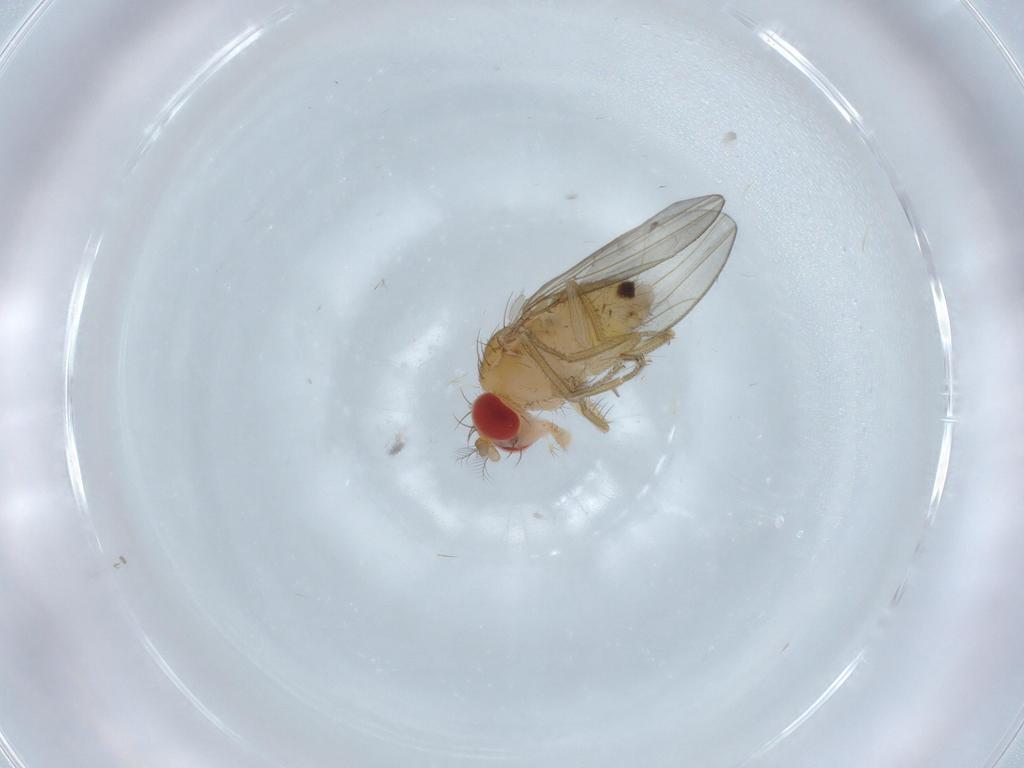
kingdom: Animalia
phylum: Arthropoda
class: Insecta
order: Diptera
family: Drosophilidae
